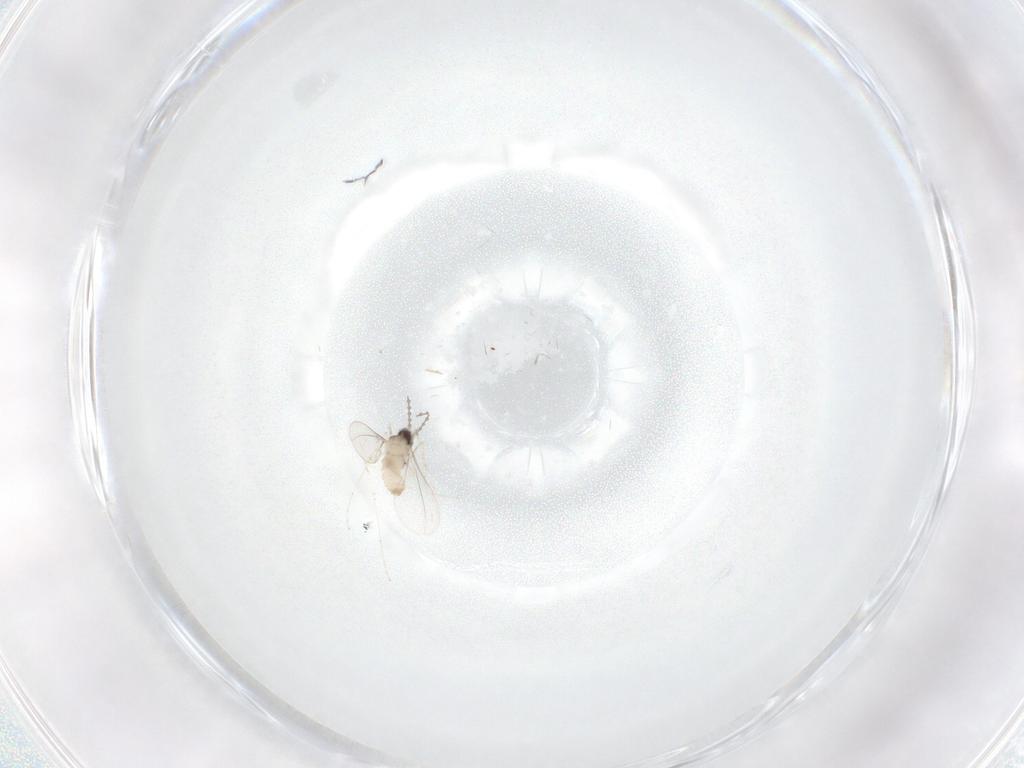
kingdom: Animalia
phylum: Arthropoda
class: Insecta
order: Diptera
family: Cecidomyiidae
